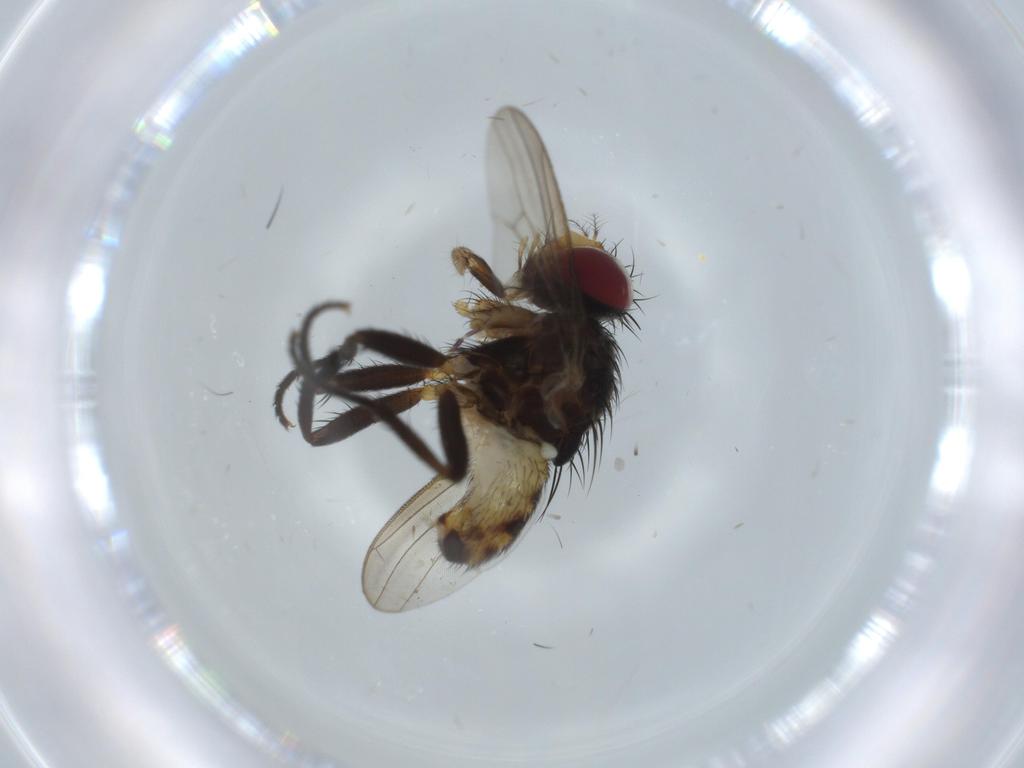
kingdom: Animalia
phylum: Arthropoda
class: Insecta
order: Diptera
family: Anthomyiidae
